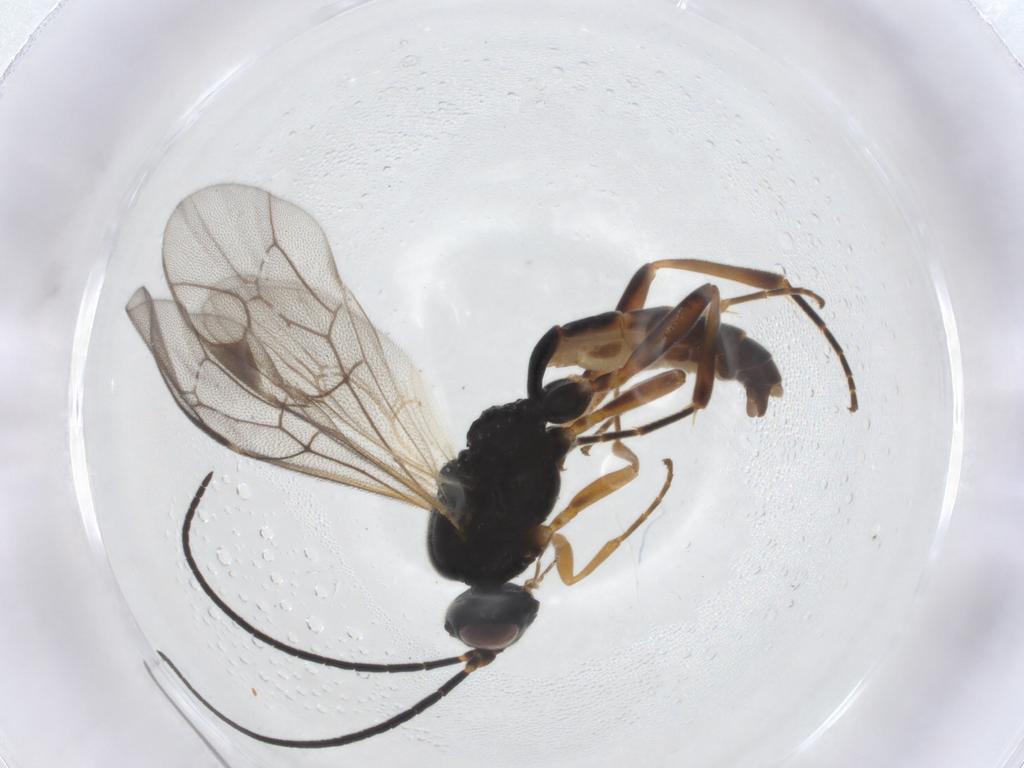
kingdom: Animalia
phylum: Arthropoda
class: Insecta
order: Hymenoptera
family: Ichneumonidae
